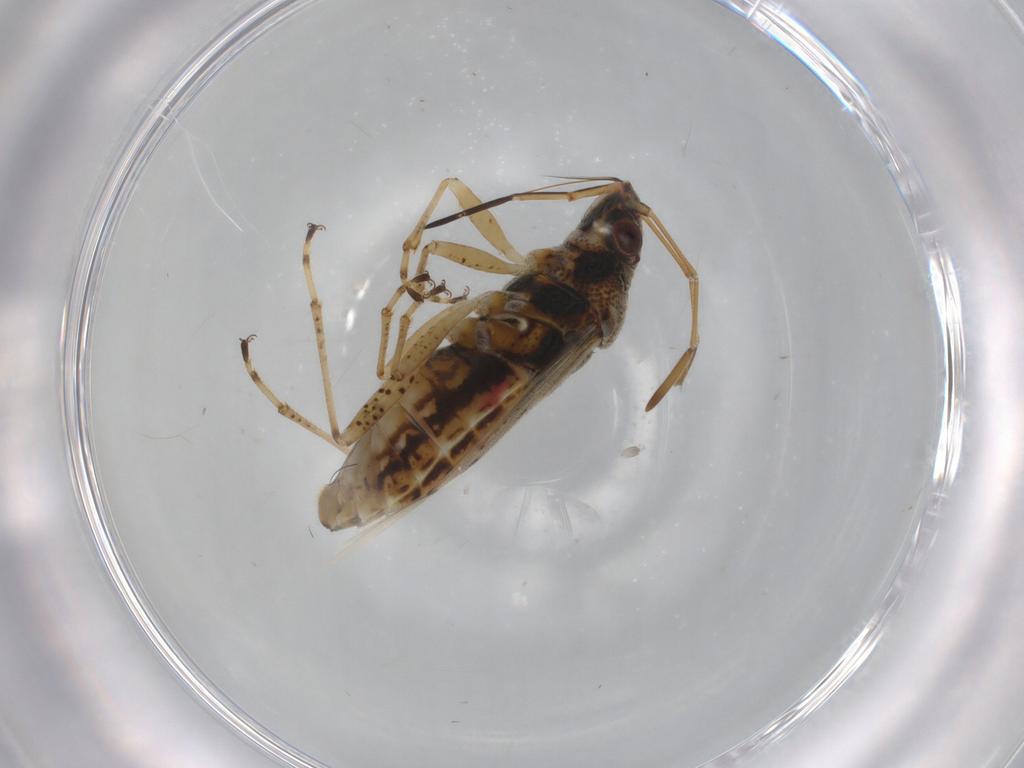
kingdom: Animalia
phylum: Arthropoda
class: Insecta
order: Hemiptera
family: Lygaeidae
